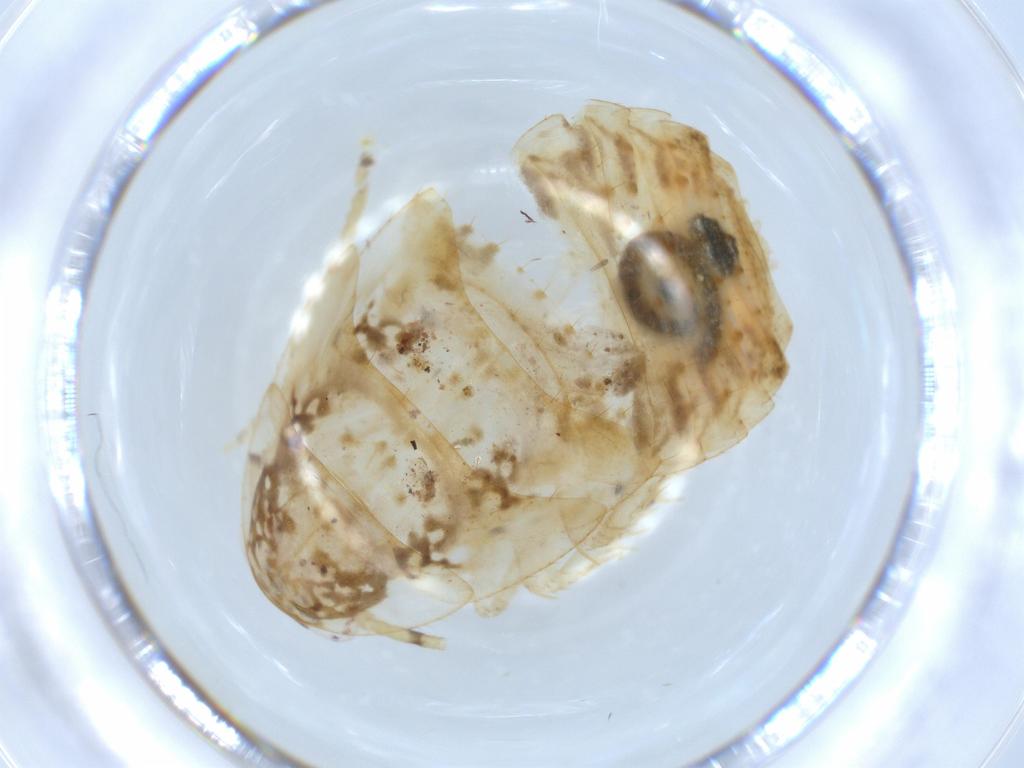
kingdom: Animalia
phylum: Arthropoda
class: Insecta
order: Blattodea
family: Ectobiidae
